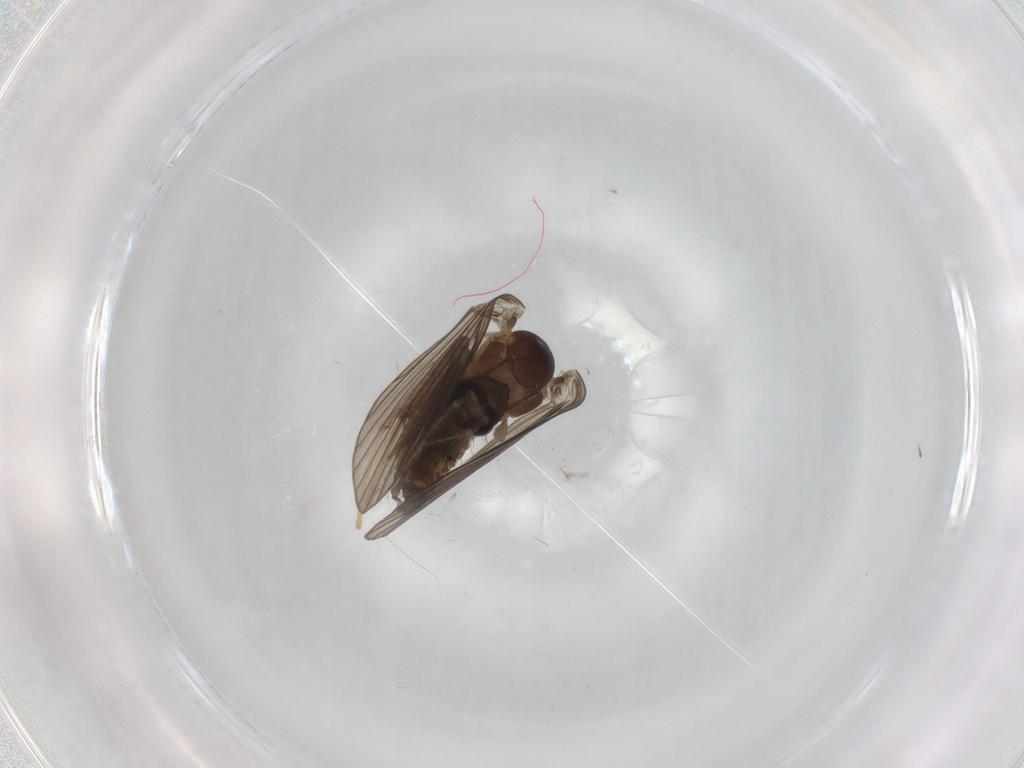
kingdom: Animalia
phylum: Arthropoda
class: Insecta
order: Diptera
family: Psychodidae
